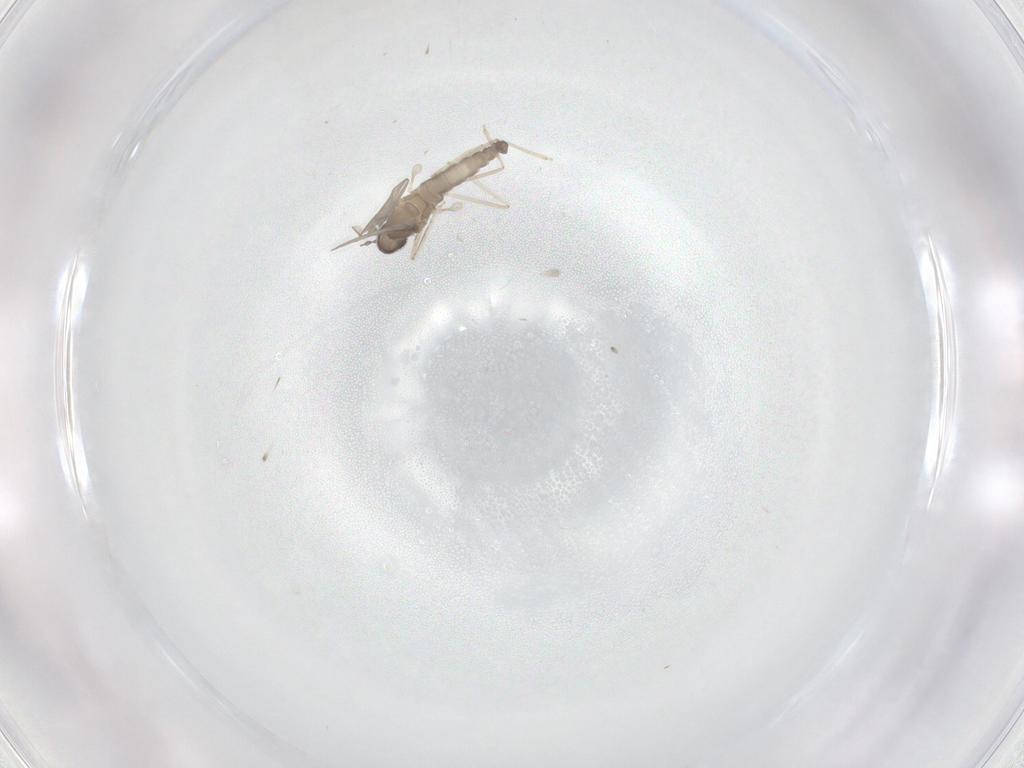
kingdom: Animalia
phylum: Arthropoda
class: Insecta
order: Diptera
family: Cecidomyiidae
